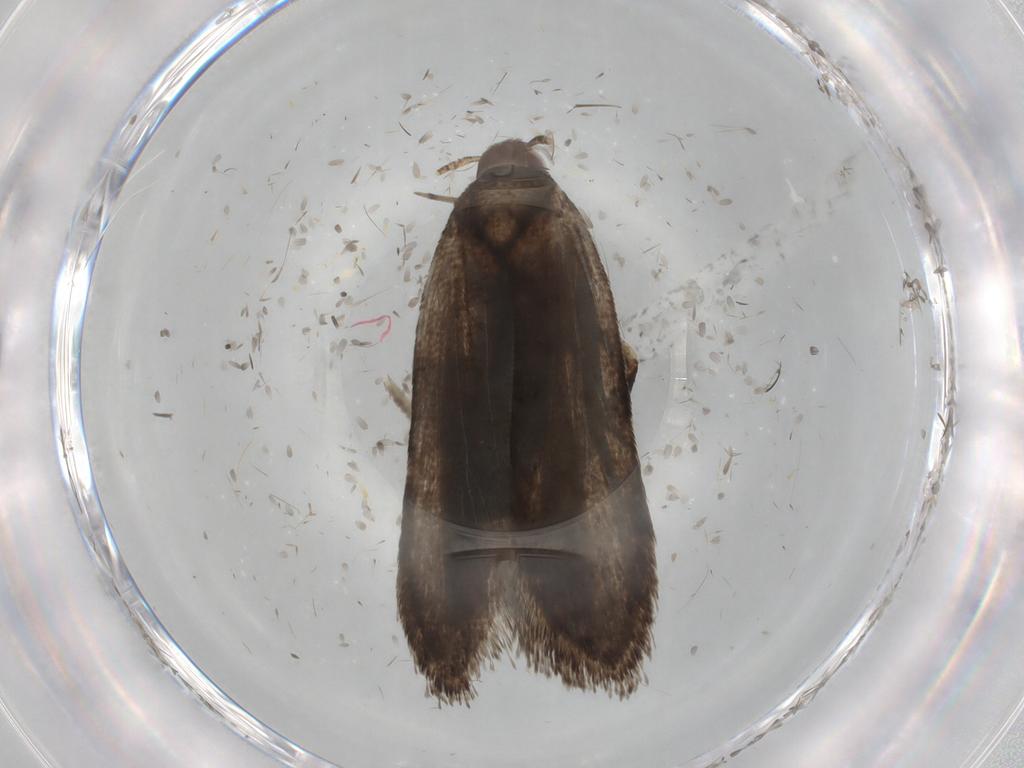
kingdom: Animalia
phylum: Arthropoda
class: Insecta
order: Lepidoptera
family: Gelechiidae
